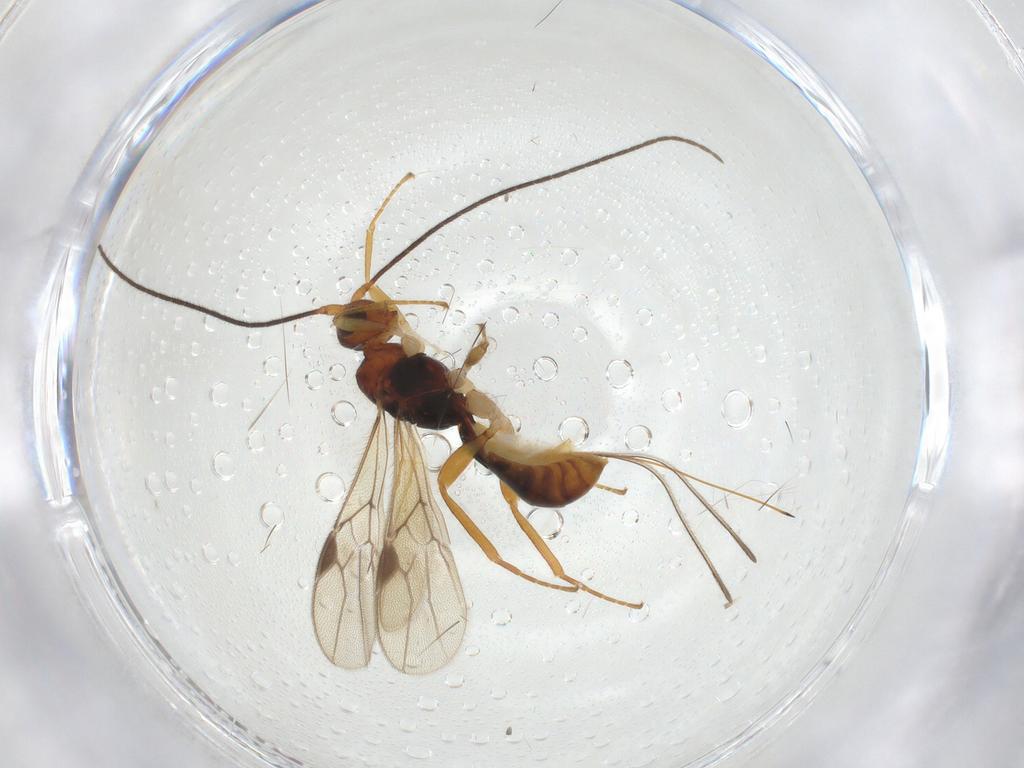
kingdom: Animalia
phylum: Arthropoda
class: Insecta
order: Hymenoptera
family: Braconidae
